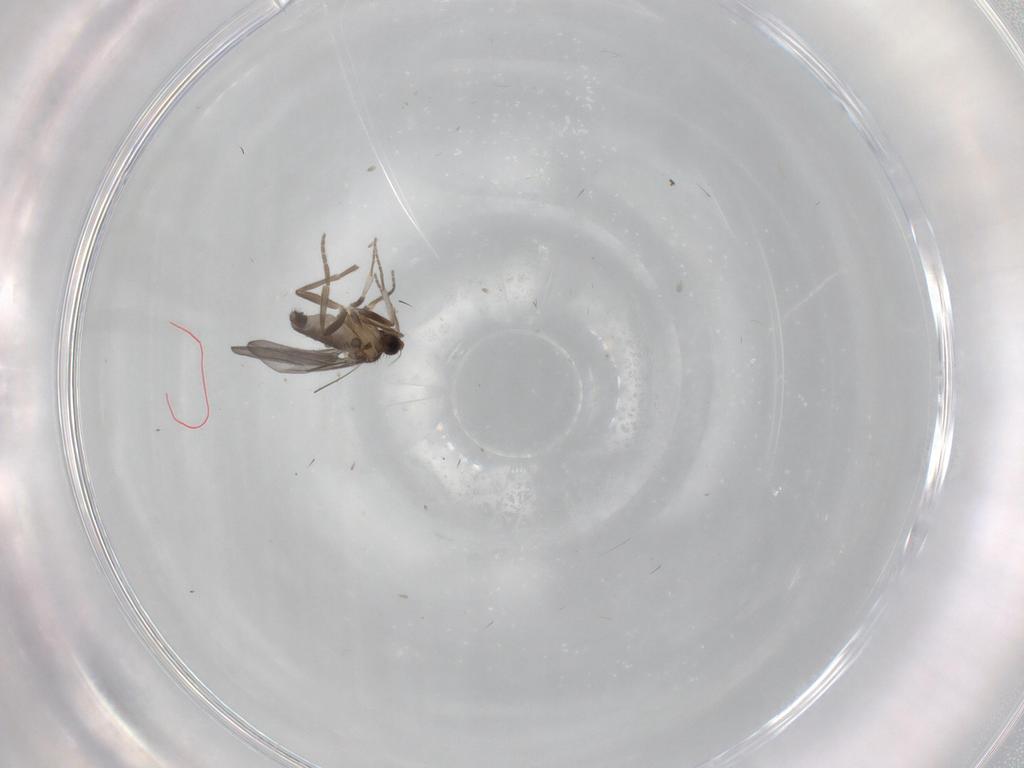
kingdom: Animalia
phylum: Arthropoda
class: Insecta
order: Diptera
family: Phoridae
